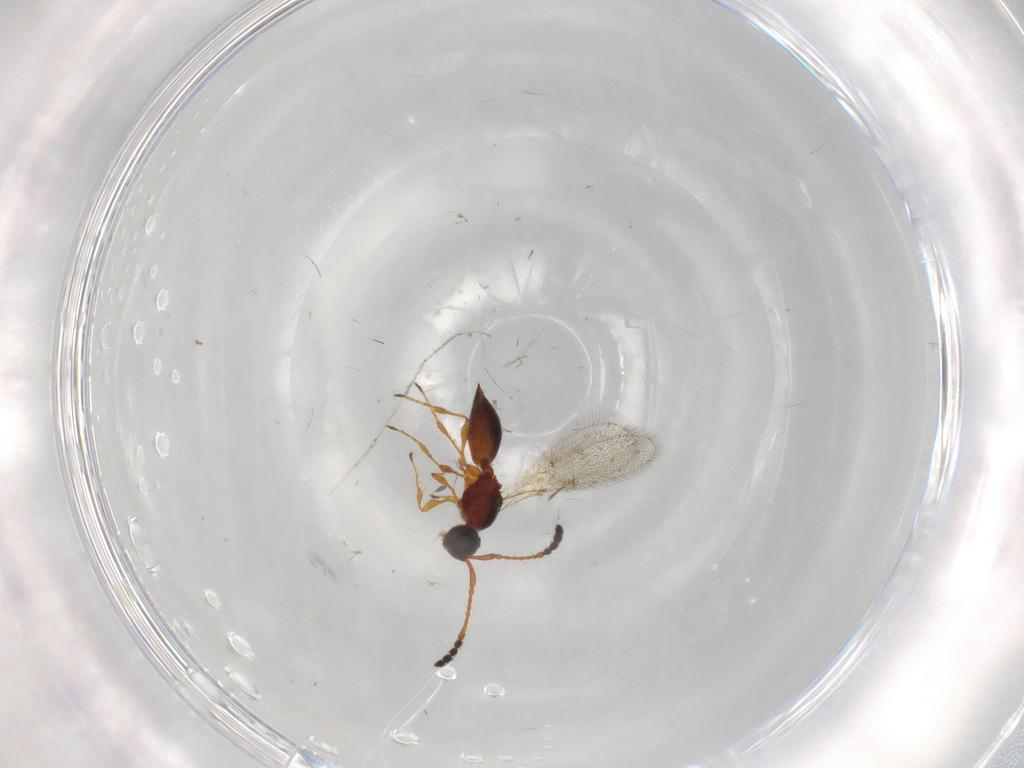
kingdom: Animalia
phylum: Arthropoda
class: Insecta
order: Hymenoptera
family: Diapriidae
